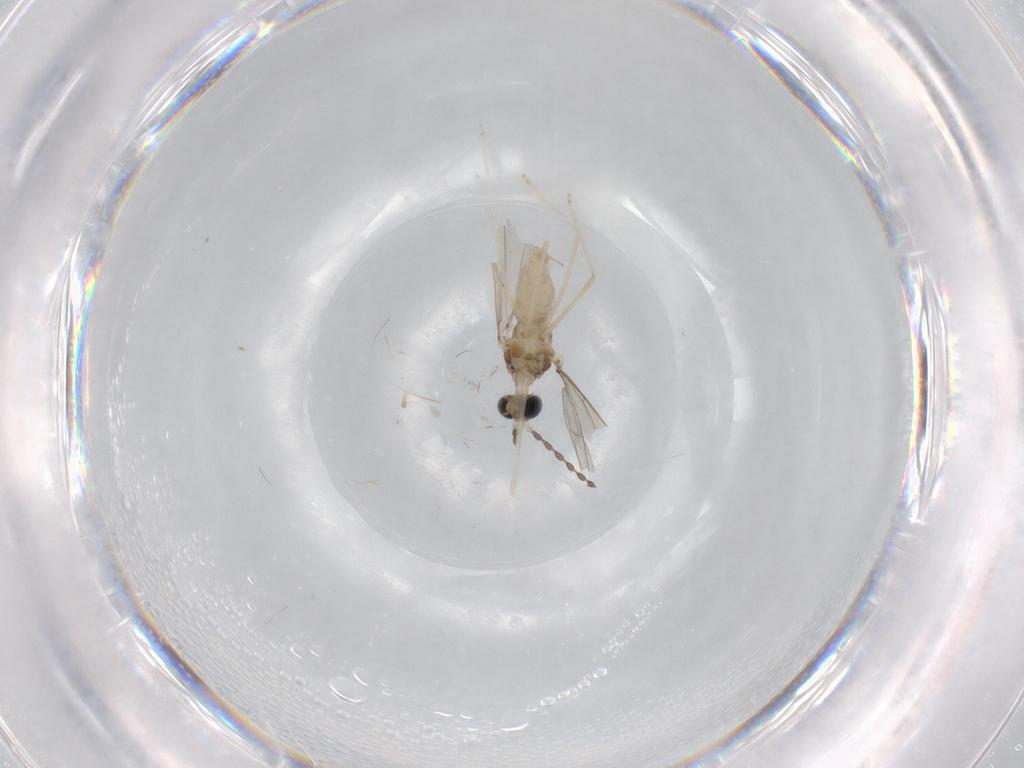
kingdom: Animalia
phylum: Arthropoda
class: Insecta
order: Diptera
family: Cecidomyiidae
